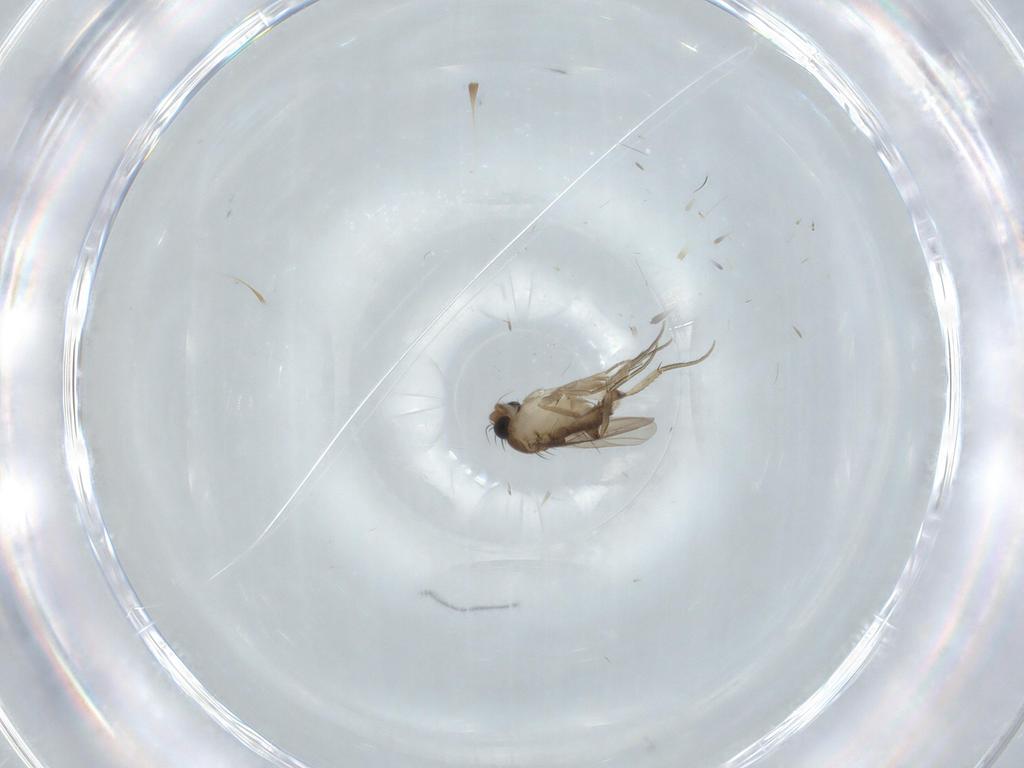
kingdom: Animalia
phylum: Arthropoda
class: Insecta
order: Diptera
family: Phoridae
